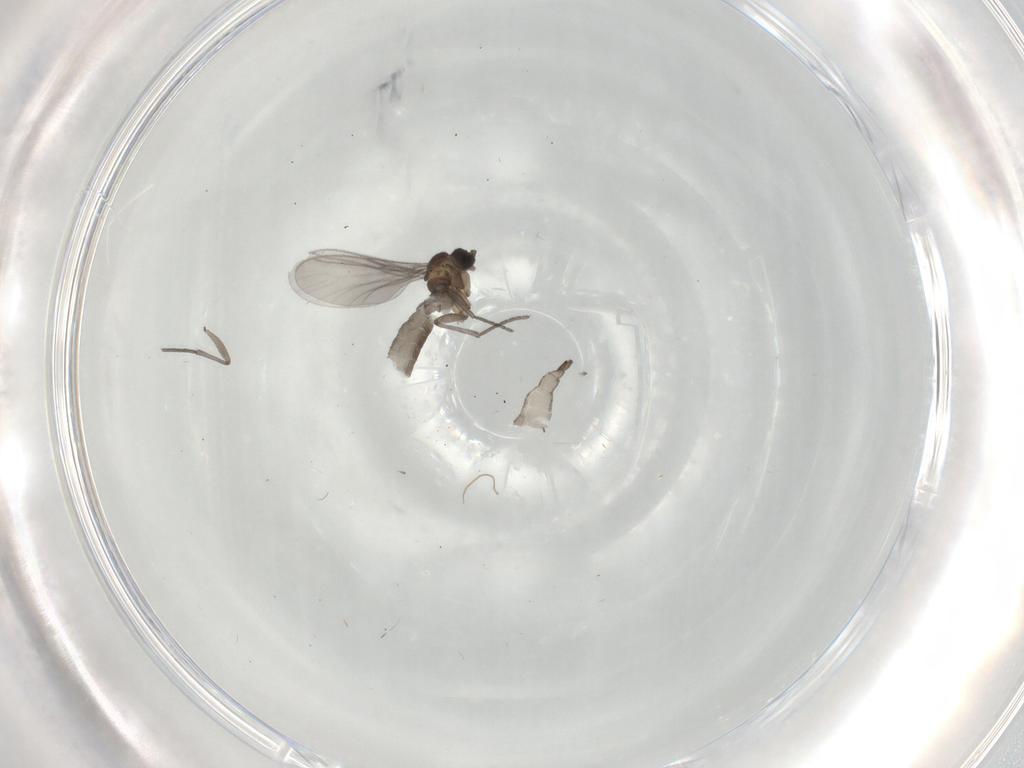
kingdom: Animalia
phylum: Arthropoda
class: Insecta
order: Diptera
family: Sciaridae
